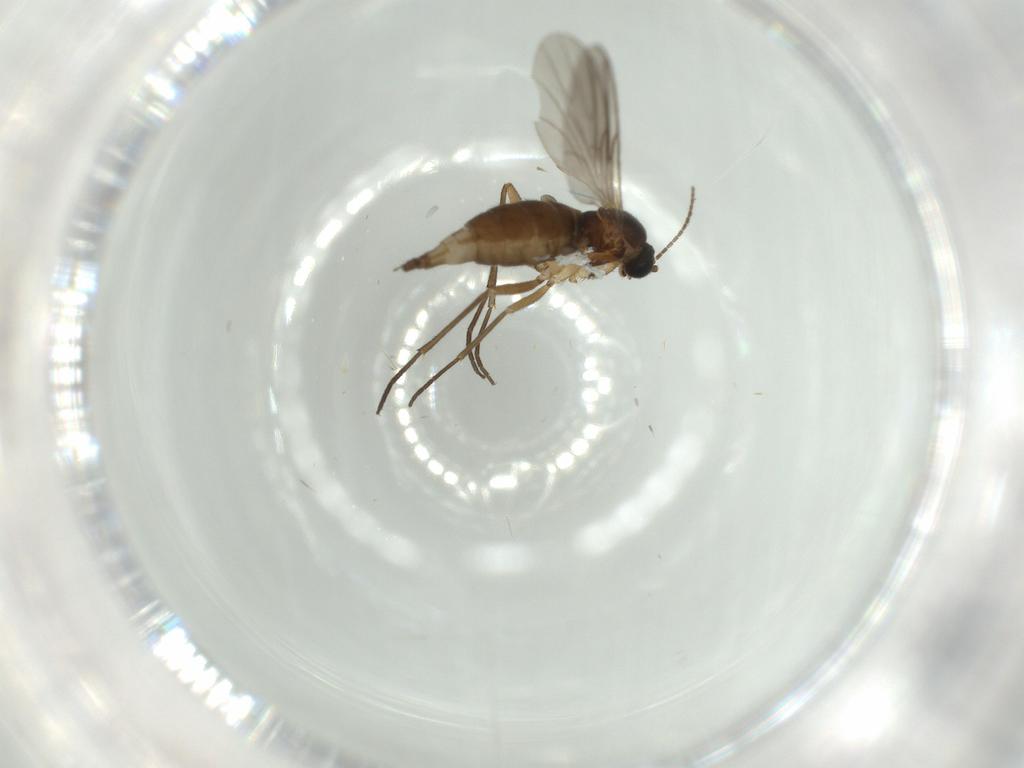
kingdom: Animalia
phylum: Arthropoda
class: Insecta
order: Diptera
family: Sciaridae
